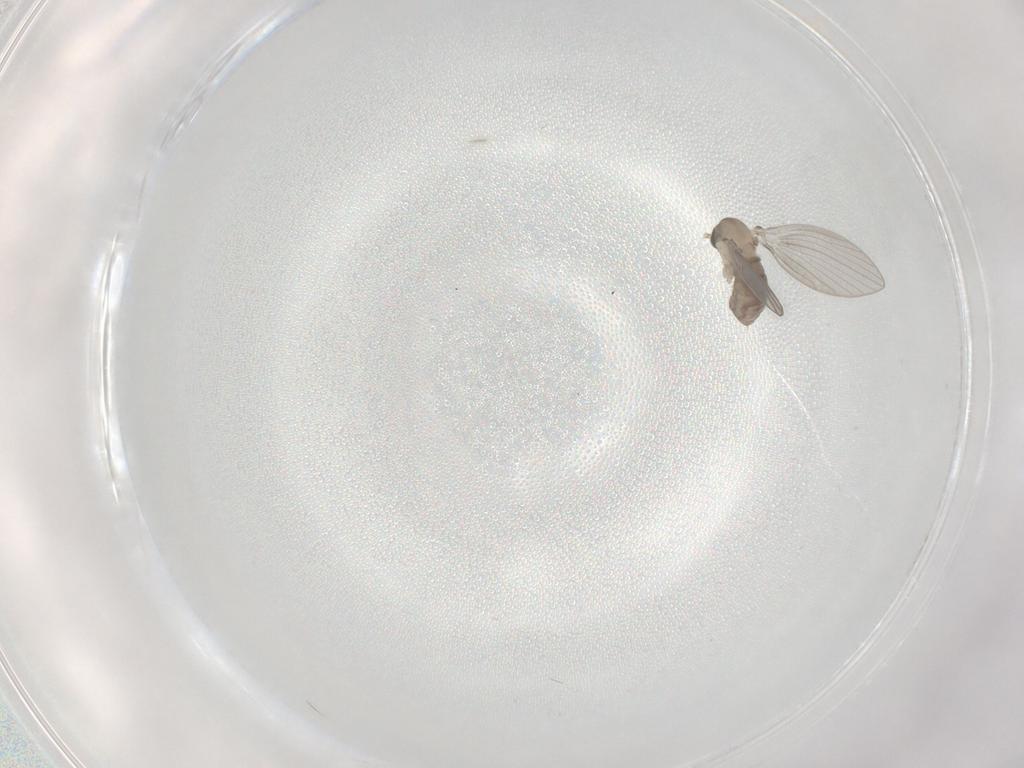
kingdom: Animalia
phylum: Arthropoda
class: Insecta
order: Diptera
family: Psychodidae
